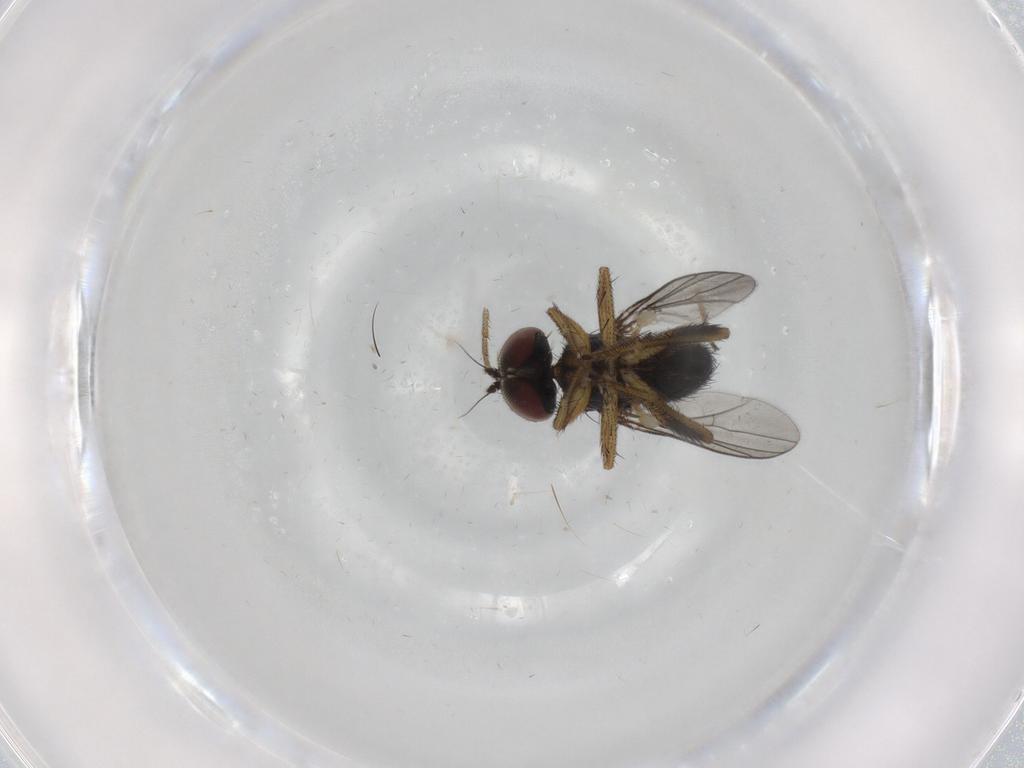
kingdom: Animalia
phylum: Arthropoda
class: Insecta
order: Diptera
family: Dolichopodidae
